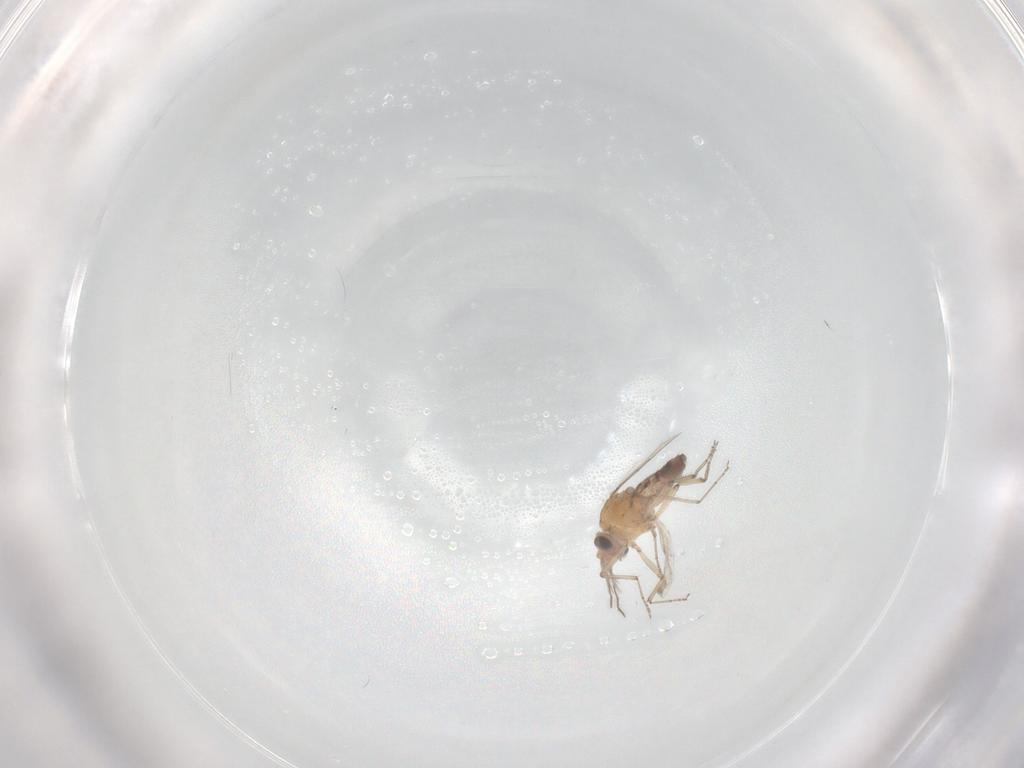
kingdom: Animalia
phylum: Arthropoda
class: Insecta
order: Diptera
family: Ceratopogonidae
